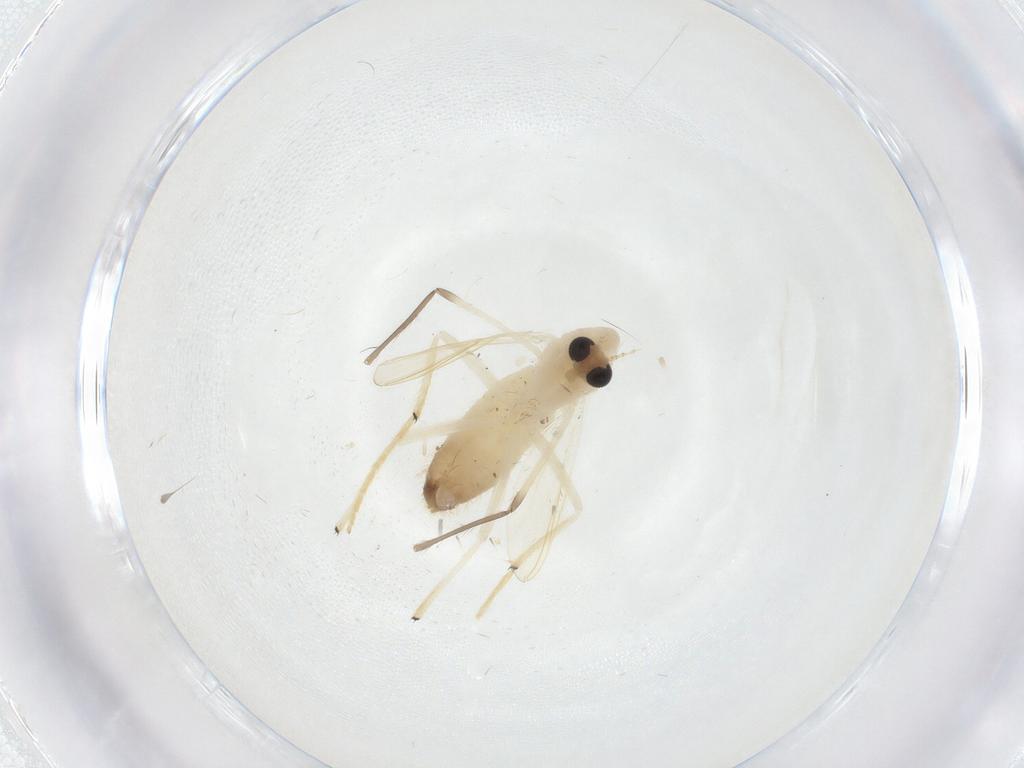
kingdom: Animalia
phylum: Arthropoda
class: Insecta
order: Diptera
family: Chironomidae
